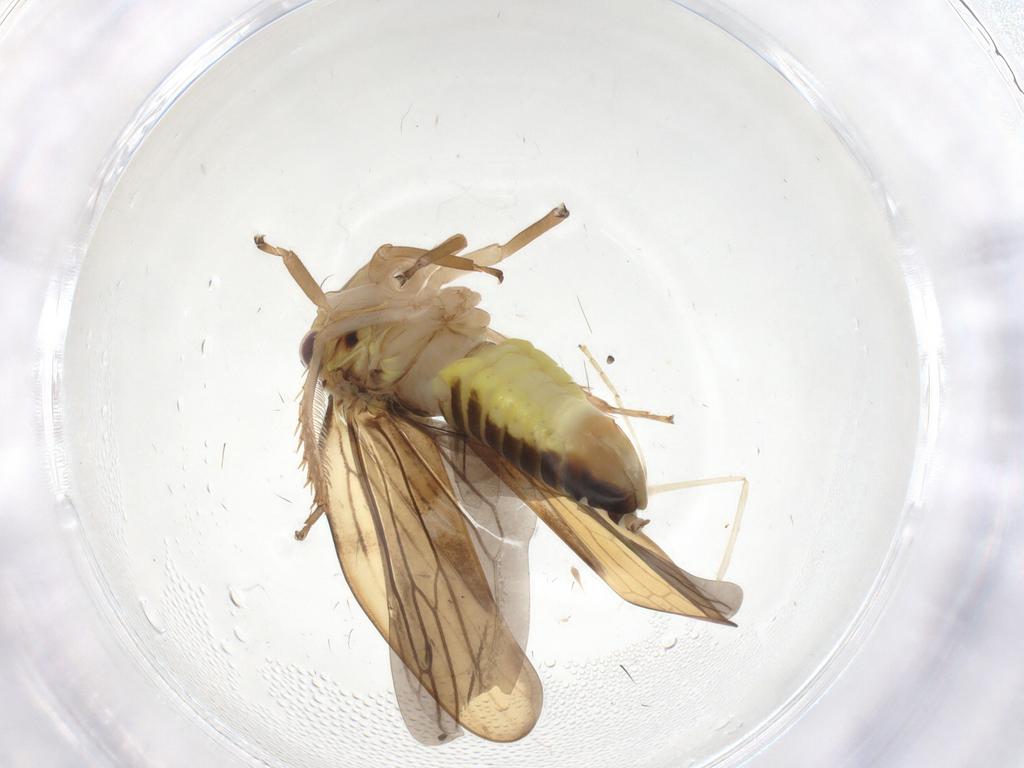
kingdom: Animalia
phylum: Arthropoda
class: Insecta
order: Hemiptera
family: Cicadellidae
